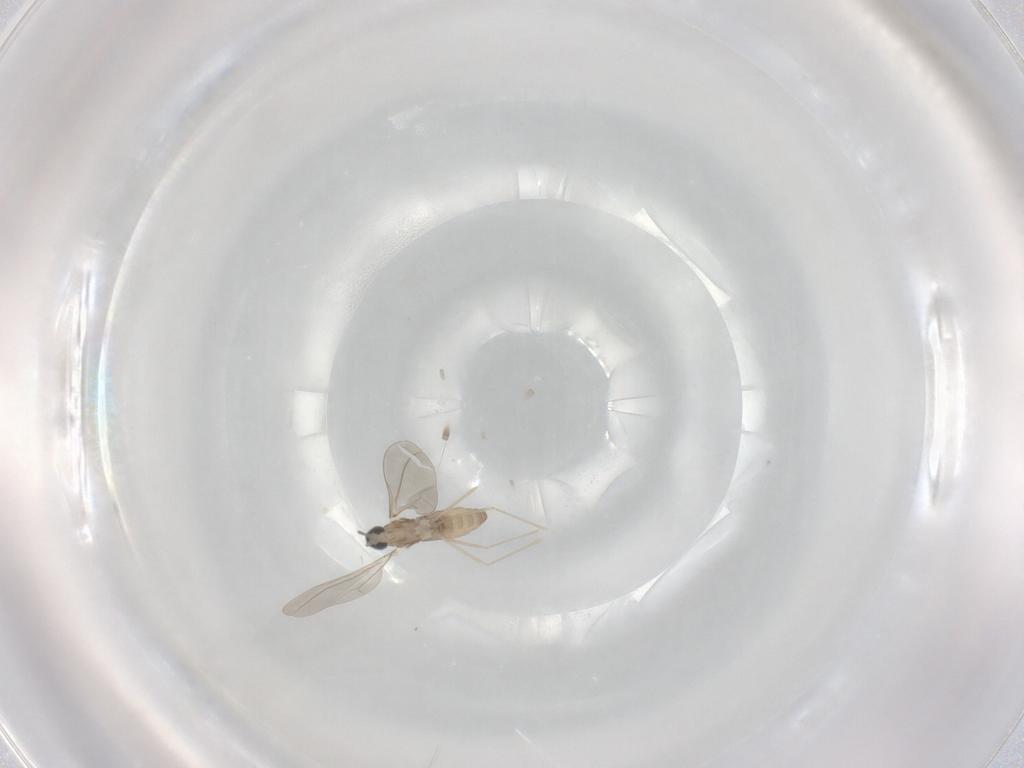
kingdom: Animalia
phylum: Arthropoda
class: Insecta
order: Diptera
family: Cecidomyiidae
